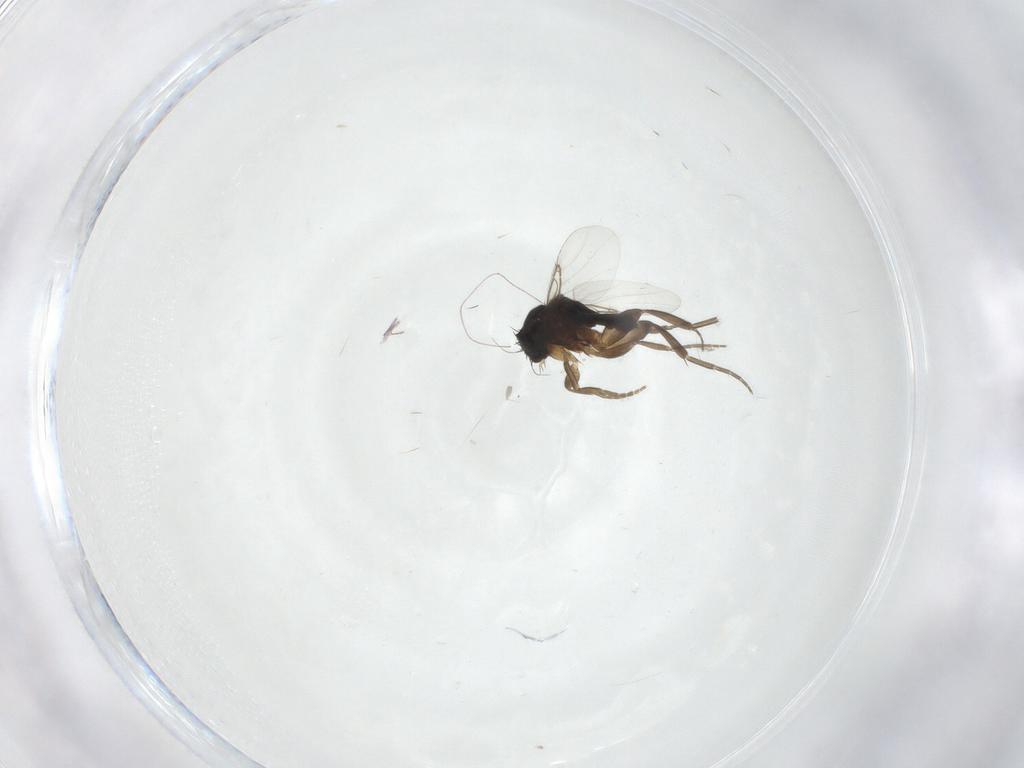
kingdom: Animalia
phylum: Arthropoda
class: Insecta
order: Diptera
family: Phoridae
